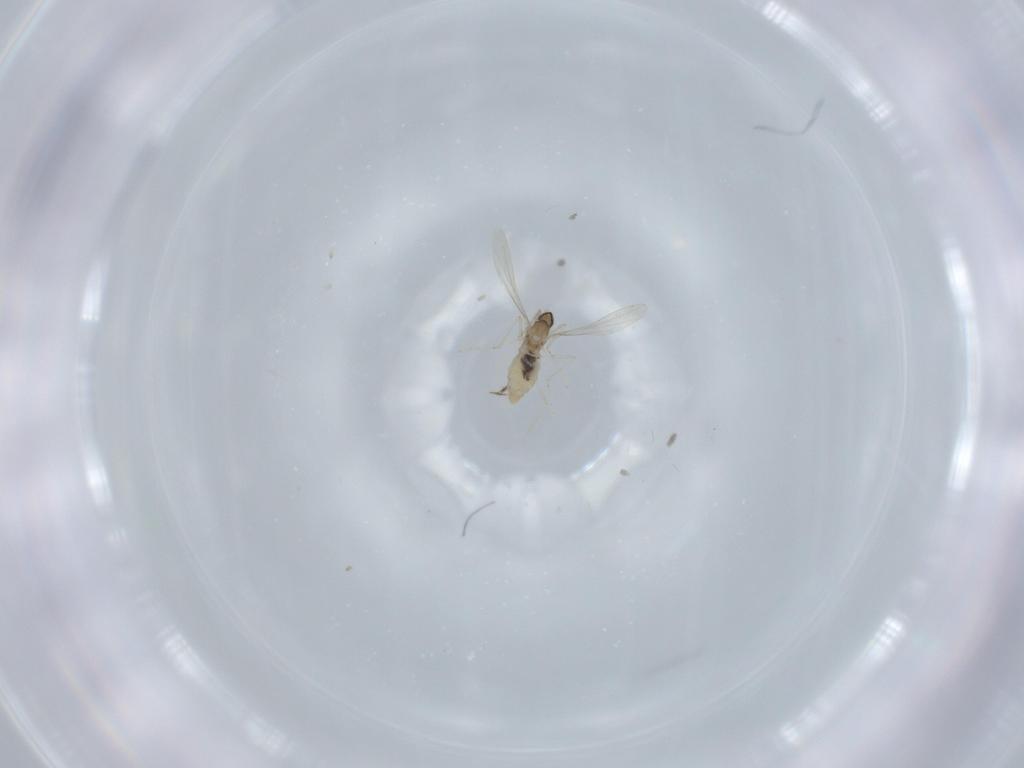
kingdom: Animalia
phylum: Arthropoda
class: Insecta
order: Diptera
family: Cecidomyiidae
